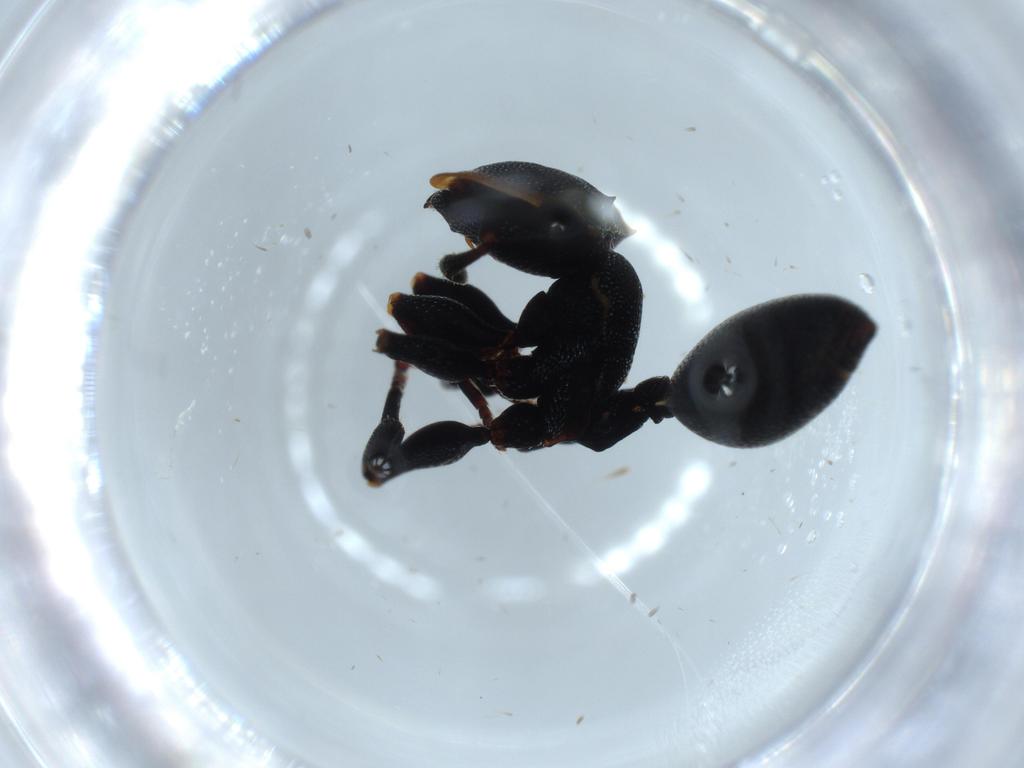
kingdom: Animalia
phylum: Arthropoda
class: Insecta
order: Hymenoptera
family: Formicidae
